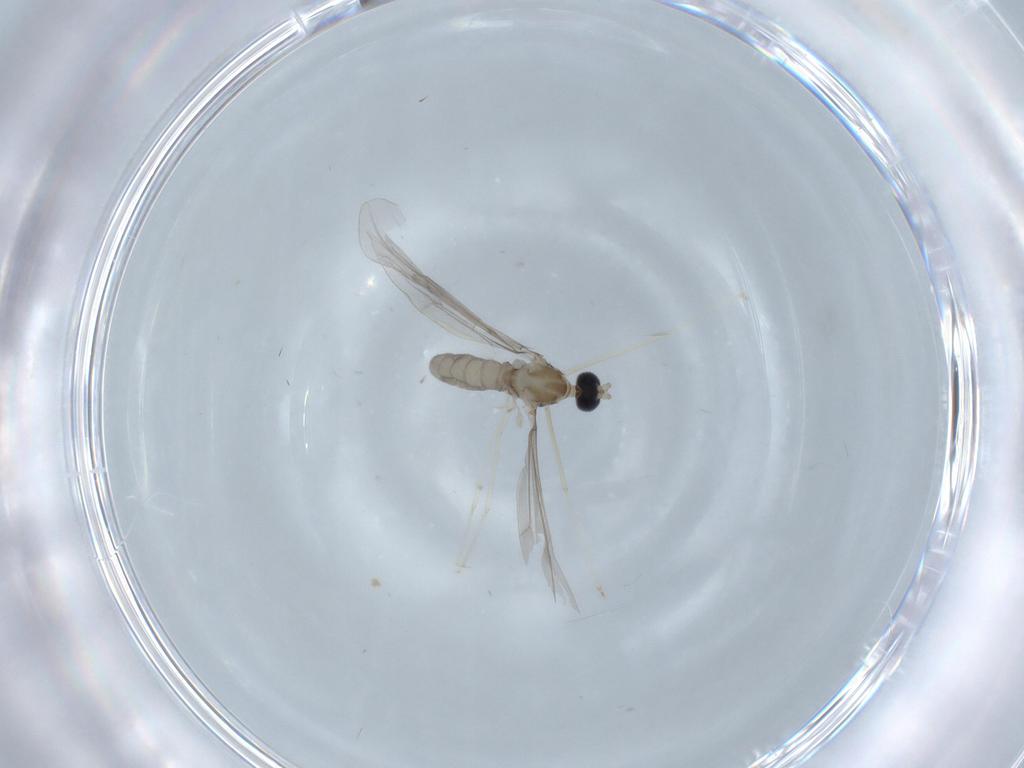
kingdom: Animalia
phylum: Arthropoda
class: Insecta
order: Diptera
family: Cecidomyiidae
